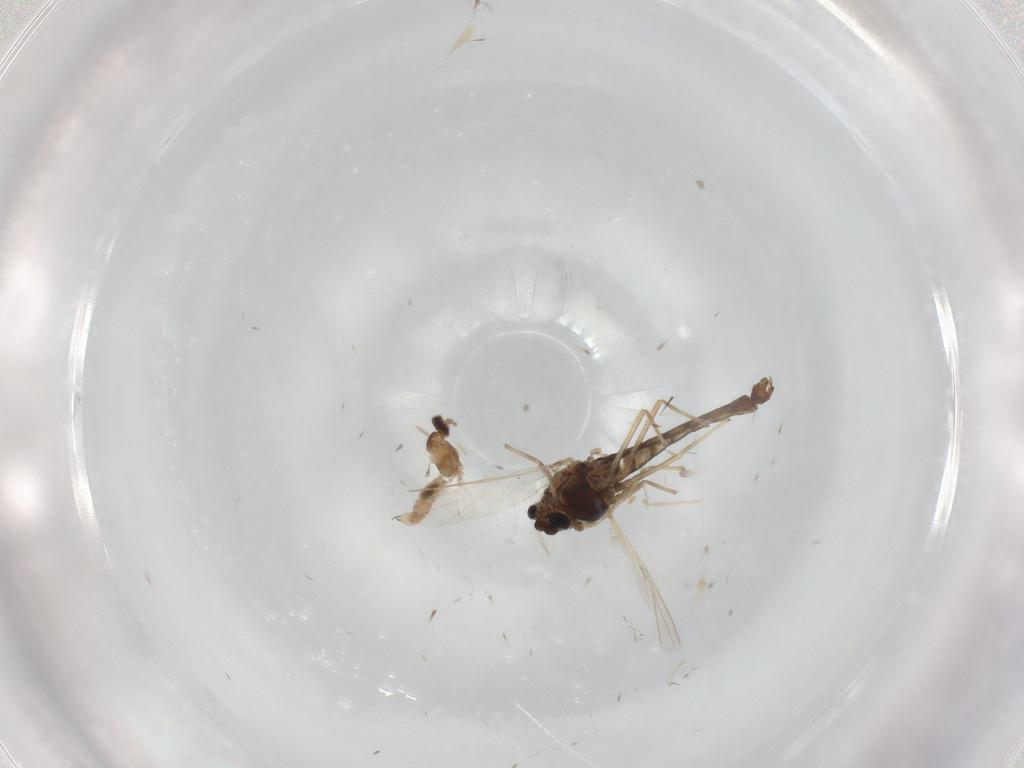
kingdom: Animalia
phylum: Arthropoda
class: Insecta
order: Diptera
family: Chironomidae
